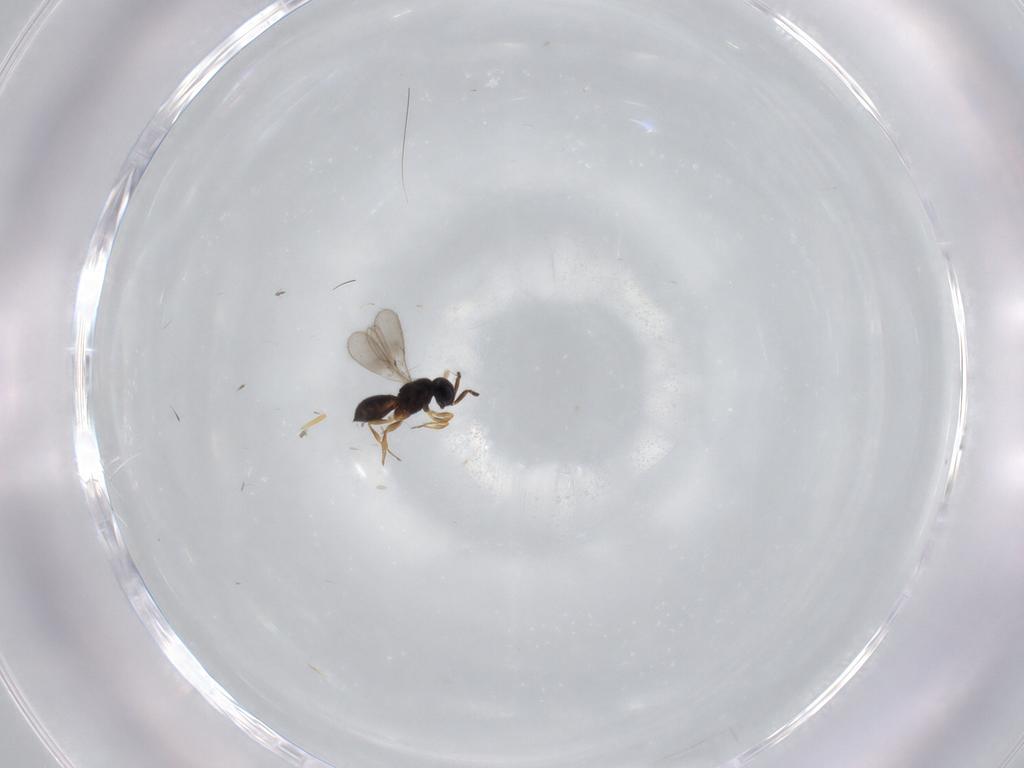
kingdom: Animalia
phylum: Arthropoda
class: Insecta
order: Hymenoptera
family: Scelionidae
